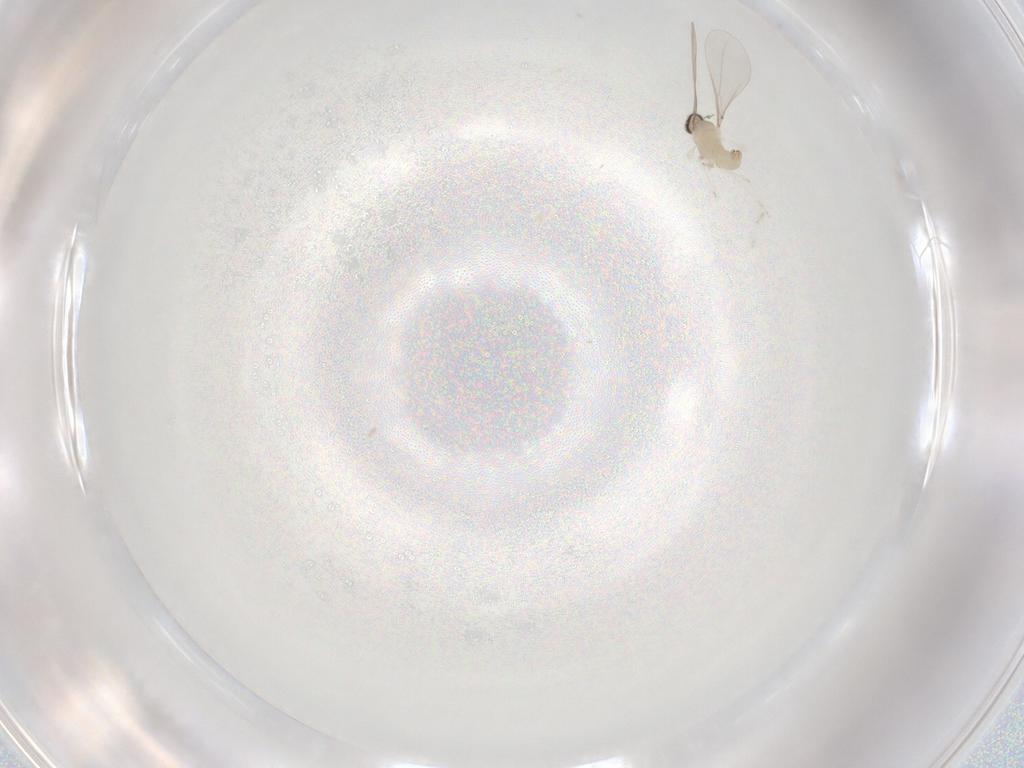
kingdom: Animalia
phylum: Arthropoda
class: Insecta
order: Diptera
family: Cecidomyiidae
